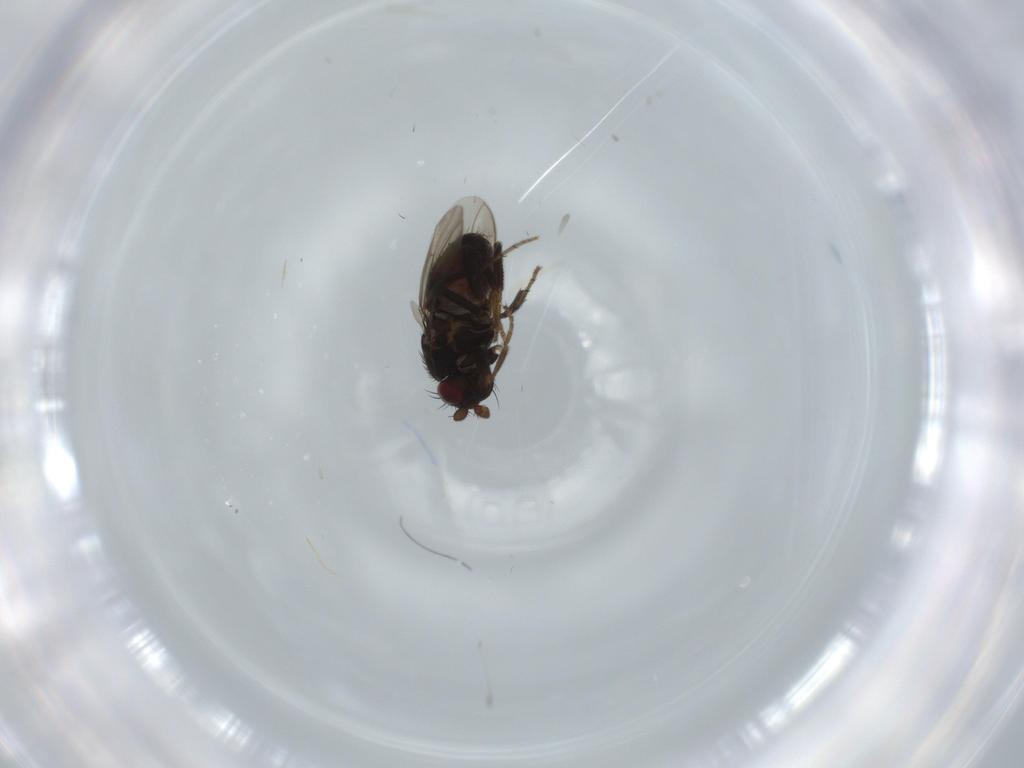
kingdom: Animalia
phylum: Arthropoda
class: Insecta
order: Diptera
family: Sphaeroceridae
